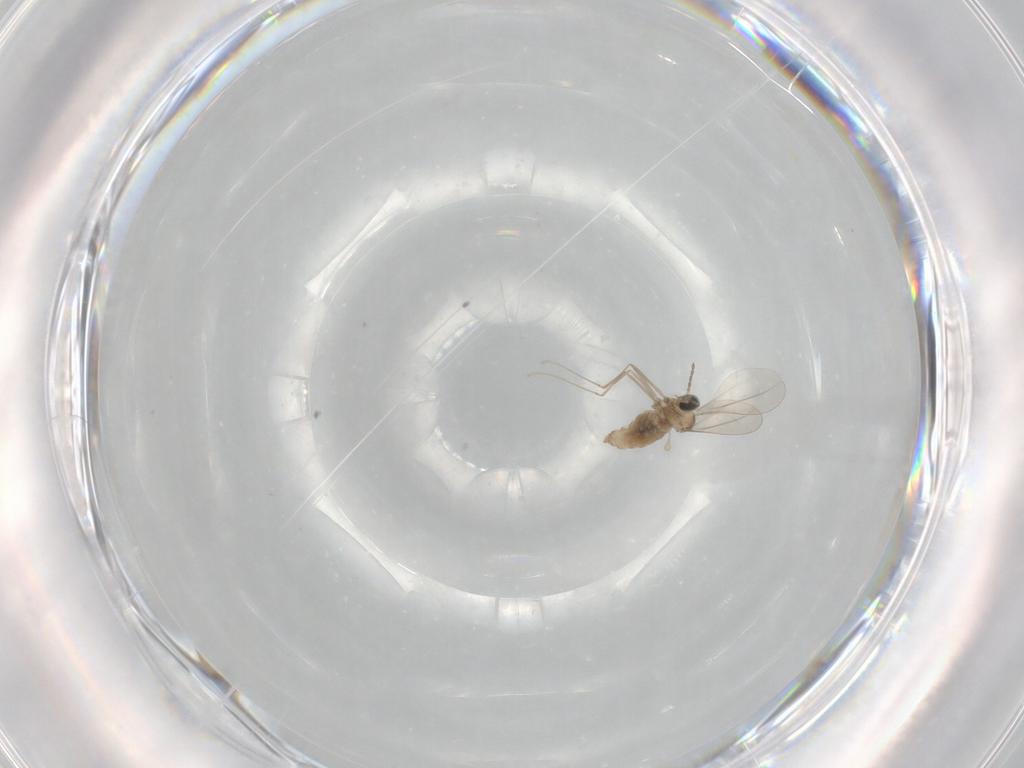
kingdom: Animalia
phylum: Arthropoda
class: Insecta
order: Diptera
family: Cecidomyiidae
